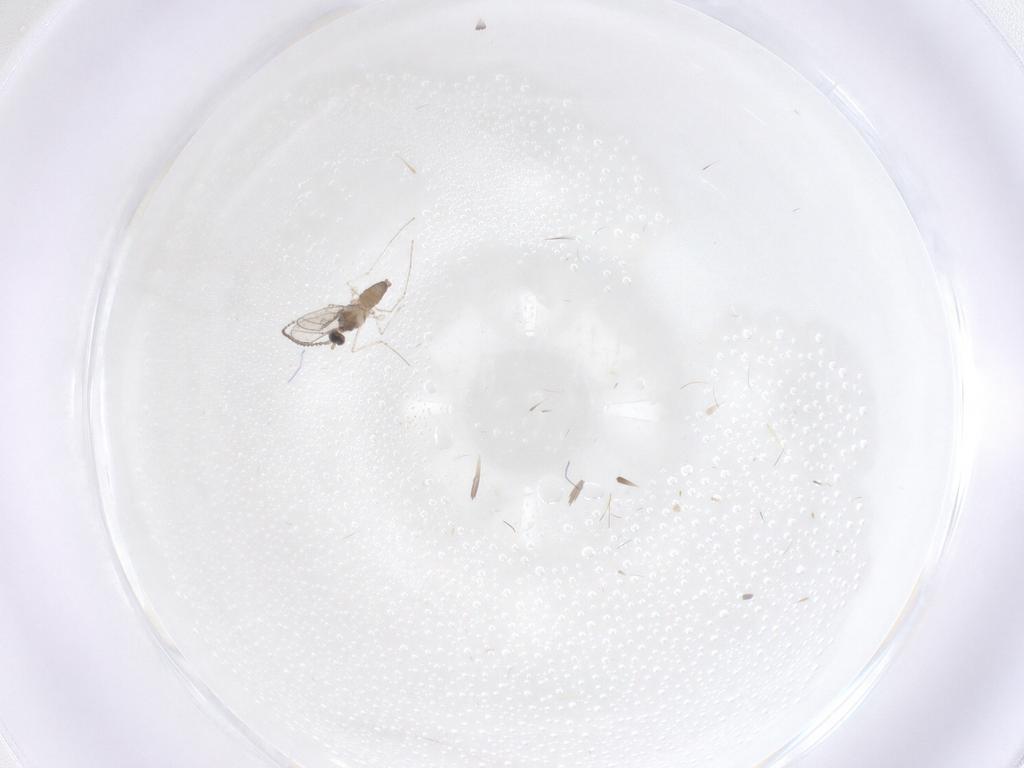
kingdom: Animalia
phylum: Arthropoda
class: Insecta
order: Diptera
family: Cecidomyiidae
